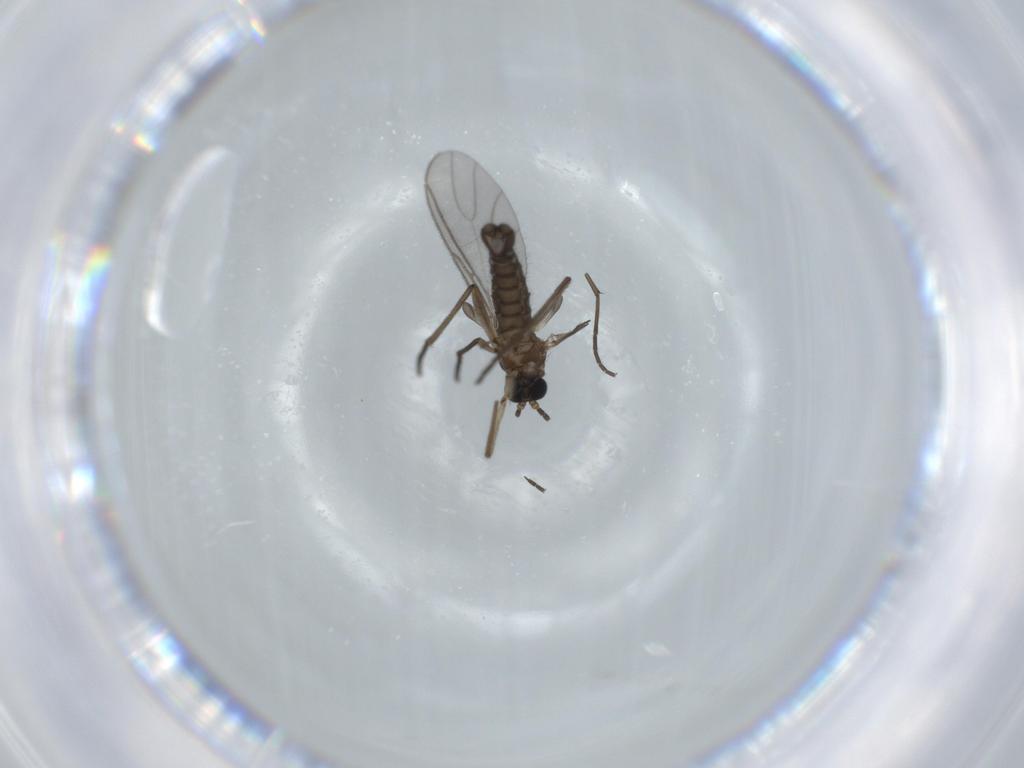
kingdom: Animalia
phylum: Arthropoda
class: Insecta
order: Diptera
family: Sciaridae
